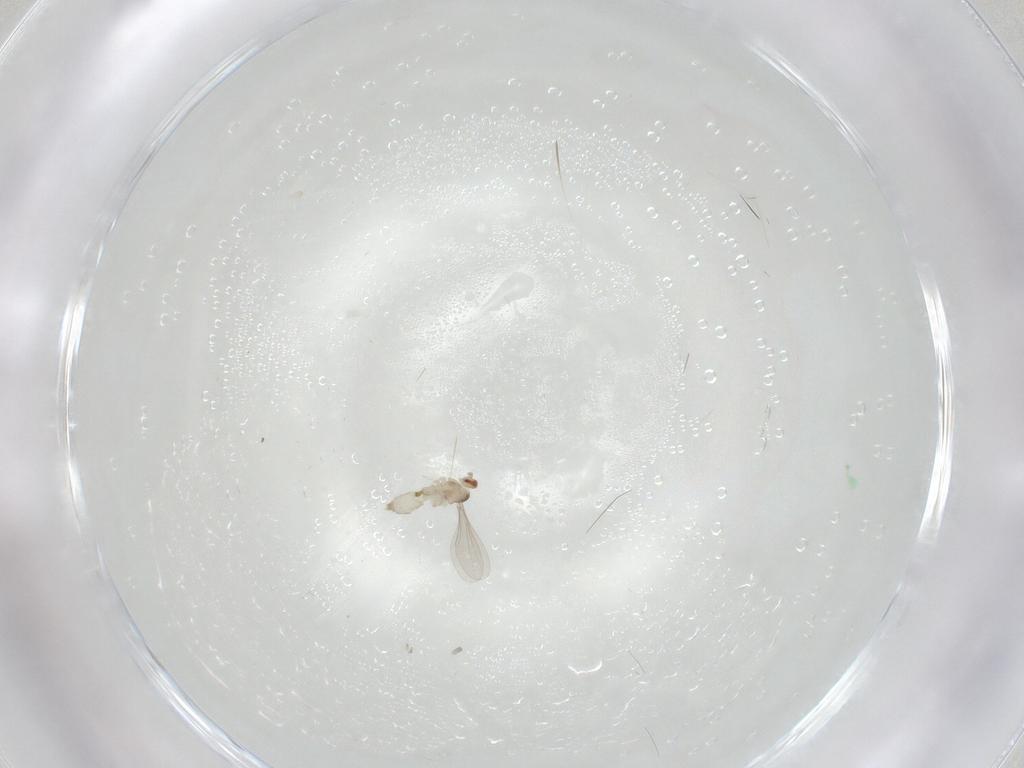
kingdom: Animalia
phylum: Arthropoda
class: Insecta
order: Diptera
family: Cecidomyiidae
